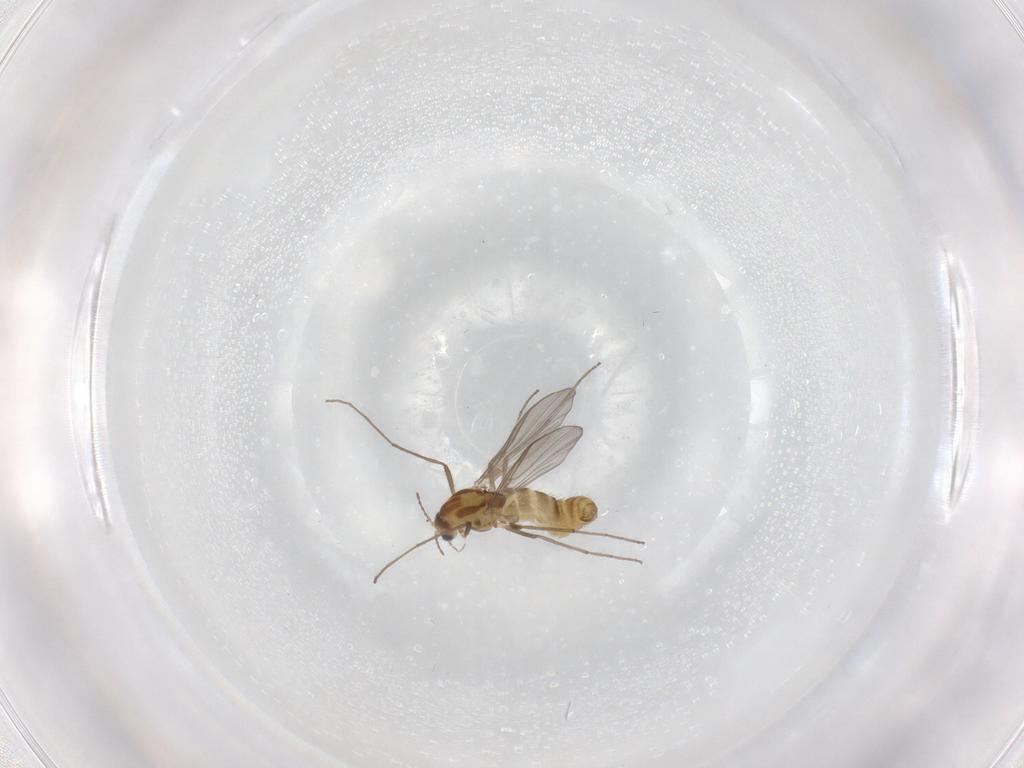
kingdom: Animalia
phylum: Arthropoda
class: Insecta
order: Diptera
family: Chironomidae
